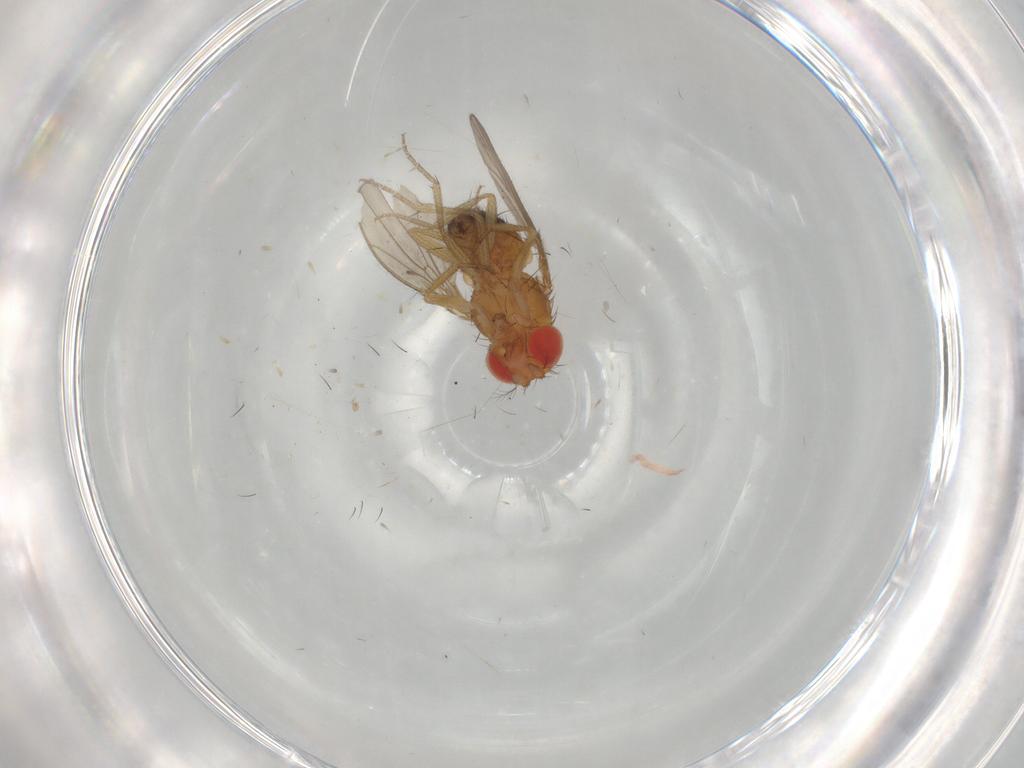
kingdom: Animalia
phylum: Arthropoda
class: Insecta
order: Diptera
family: Drosophilidae
